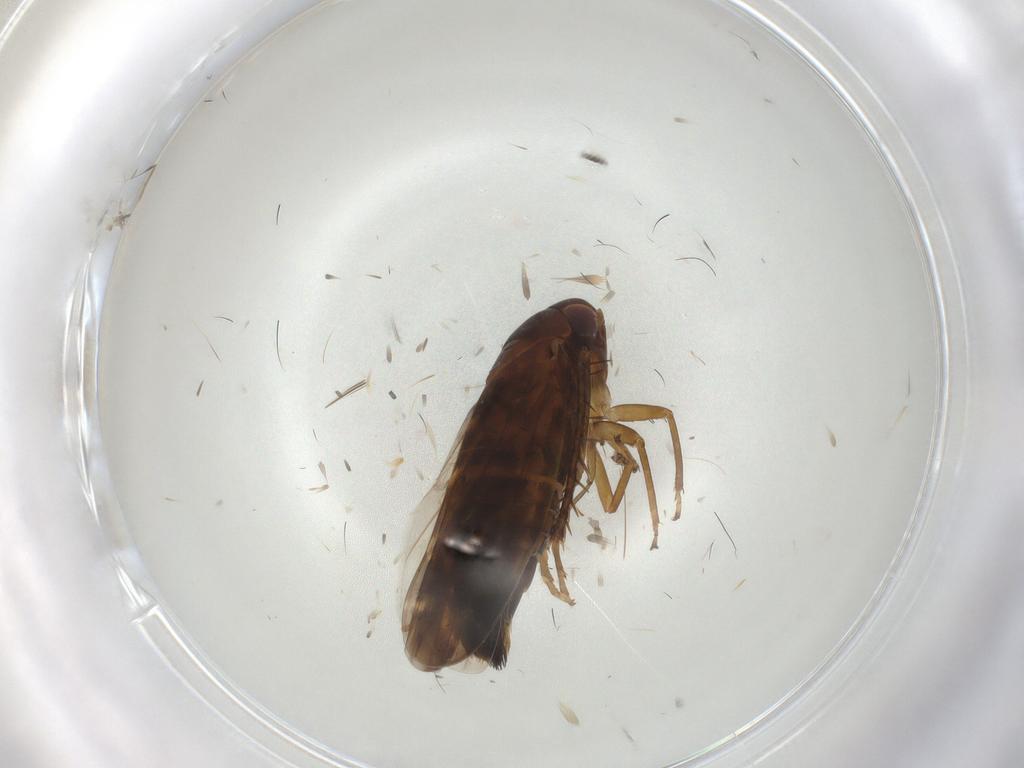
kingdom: Animalia
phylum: Arthropoda
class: Insecta
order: Hemiptera
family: Cicadellidae
